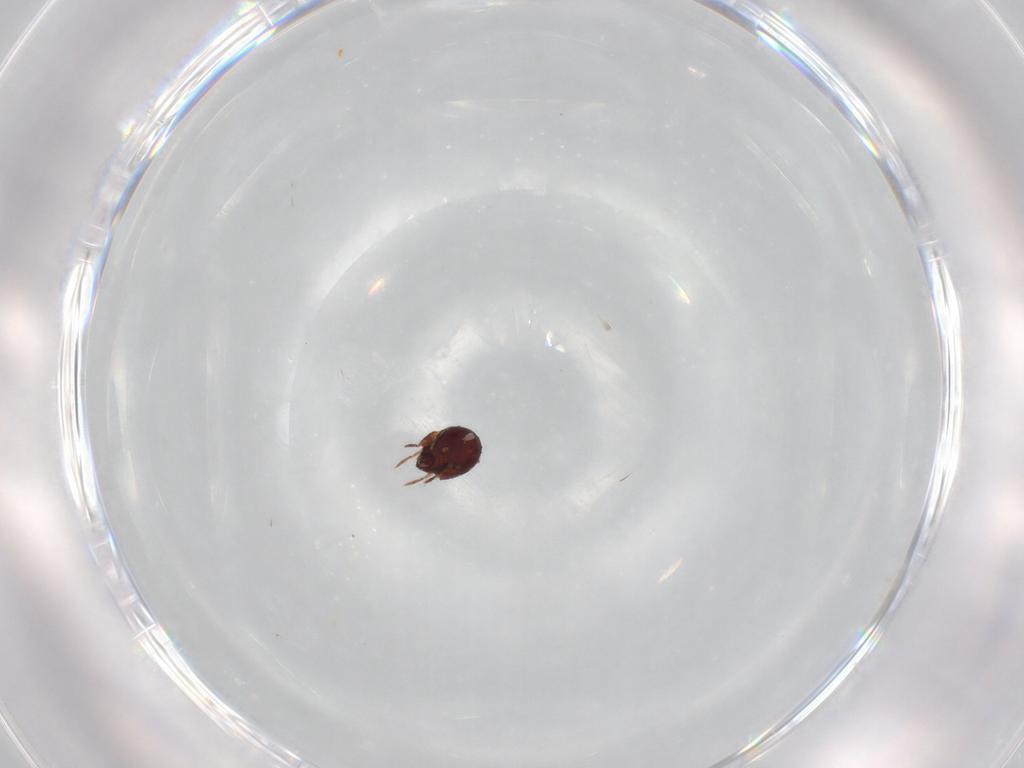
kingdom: Animalia
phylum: Arthropoda
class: Arachnida
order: Sarcoptiformes
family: Humerobatidae
